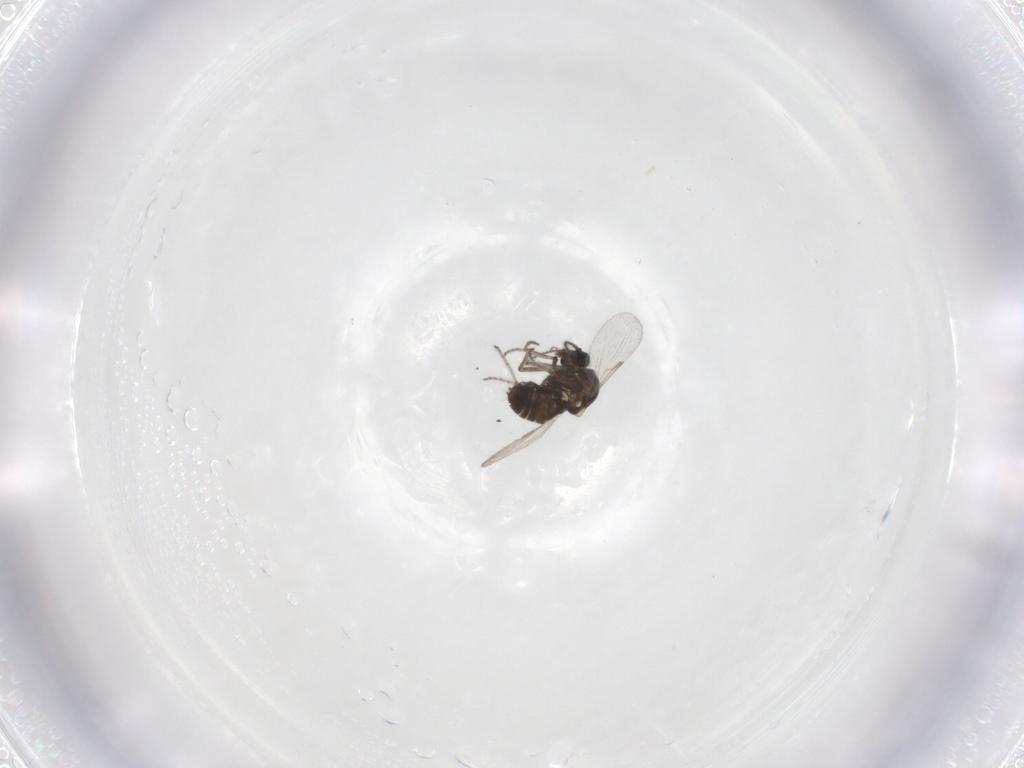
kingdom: Animalia
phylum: Arthropoda
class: Insecta
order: Diptera
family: Ceratopogonidae
